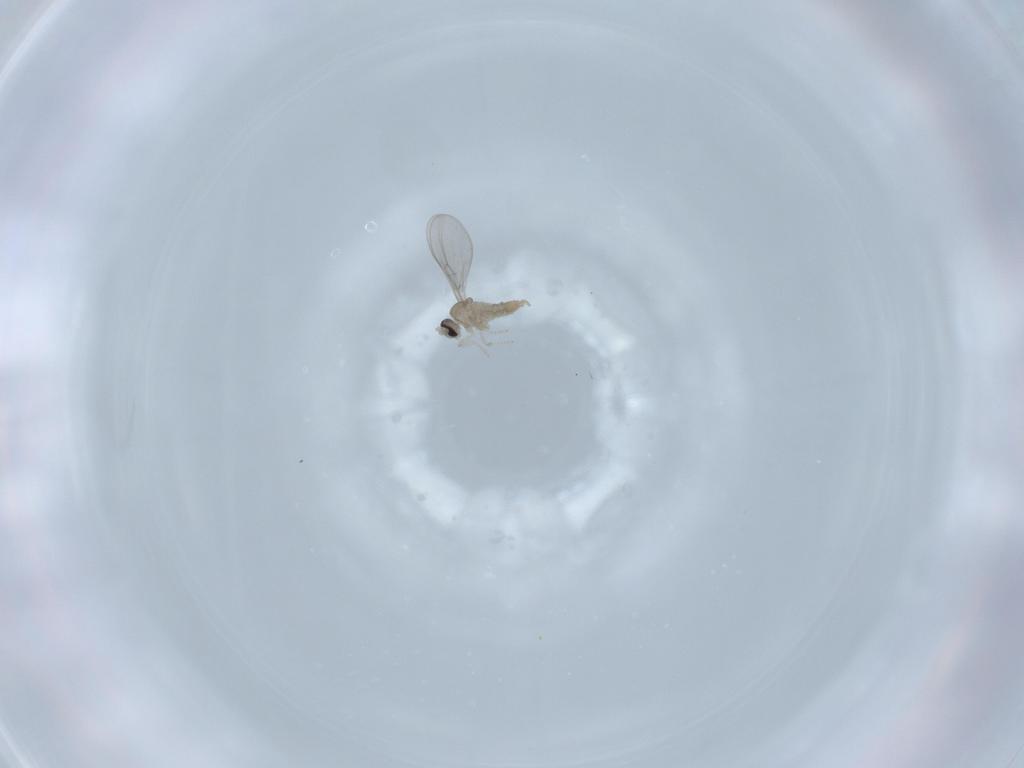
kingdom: Animalia
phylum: Arthropoda
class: Insecta
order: Diptera
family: Cecidomyiidae
